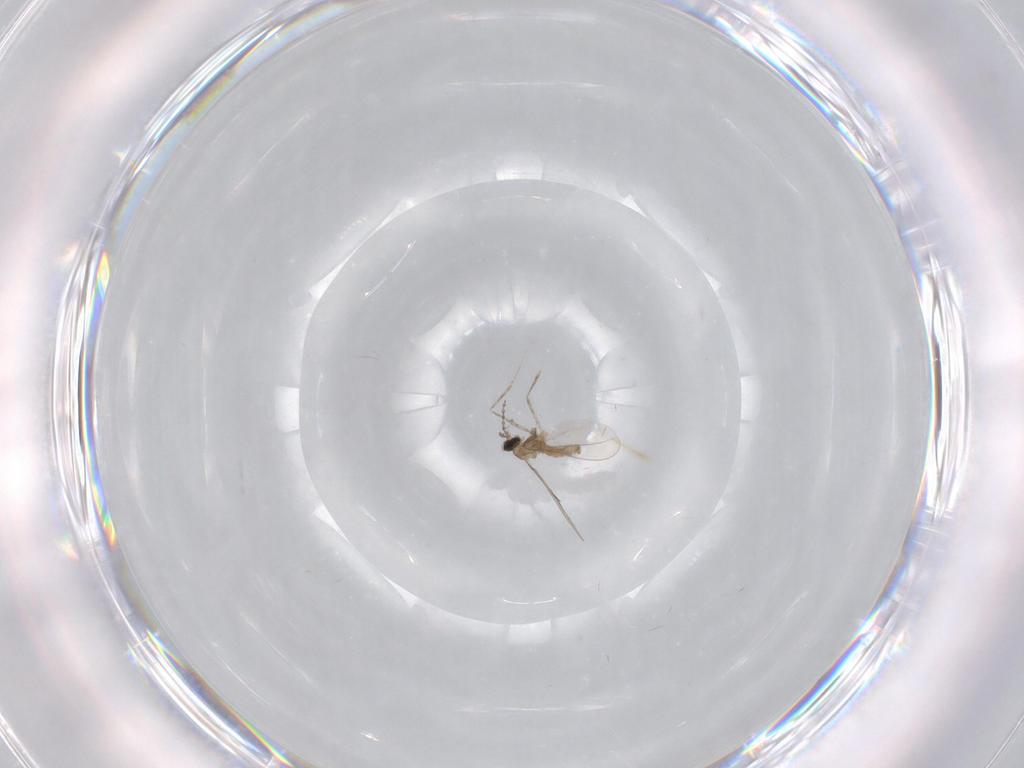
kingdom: Animalia
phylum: Arthropoda
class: Insecta
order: Diptera
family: Cecidomyiidae
